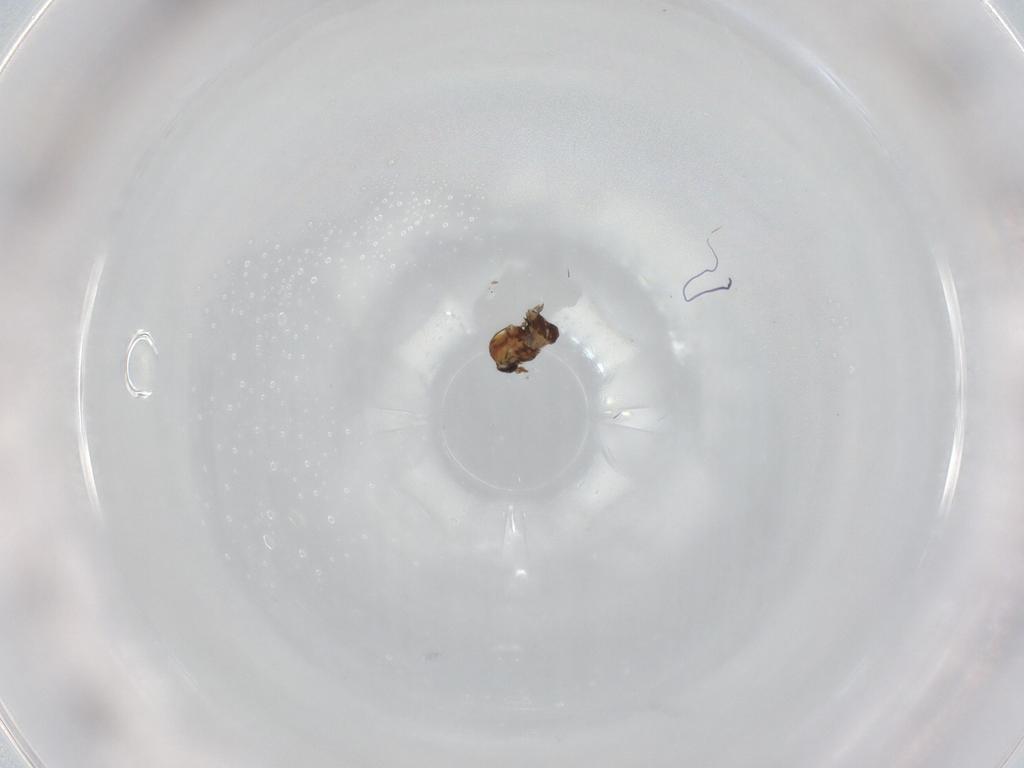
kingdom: Animalia
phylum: Arthropoda
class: Insecta
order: Diptera
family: Ceratopogonidae
